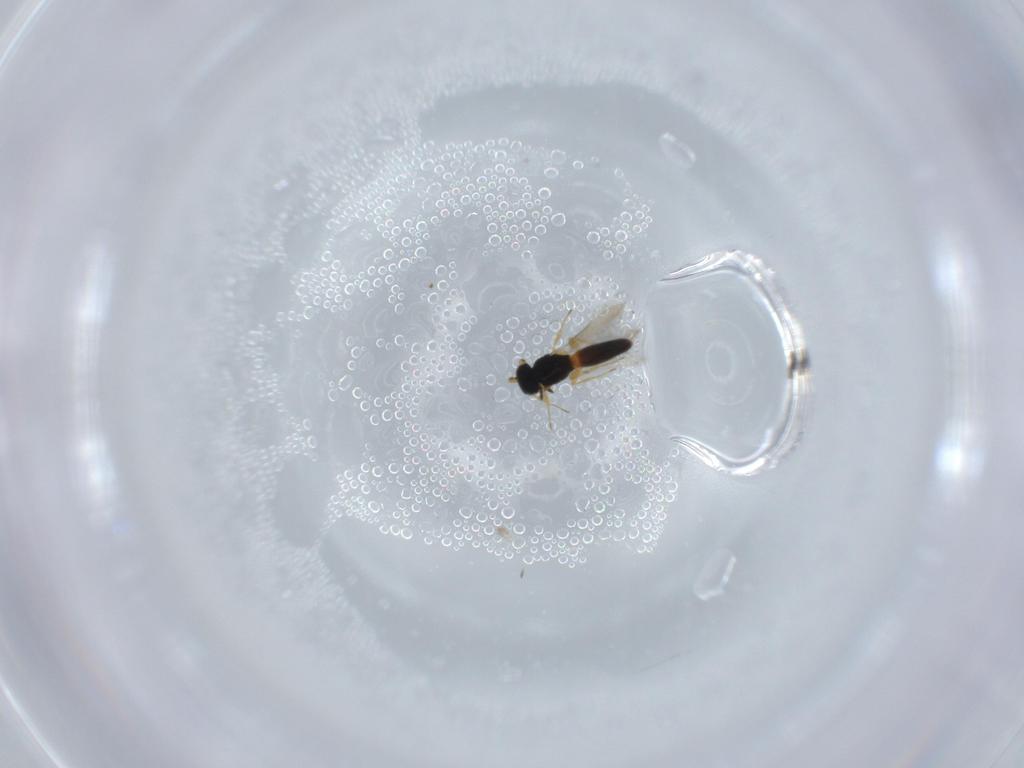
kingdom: Animalia
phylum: Arthropoda
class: Insecta
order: Hymenoptera
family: Scelionidae
